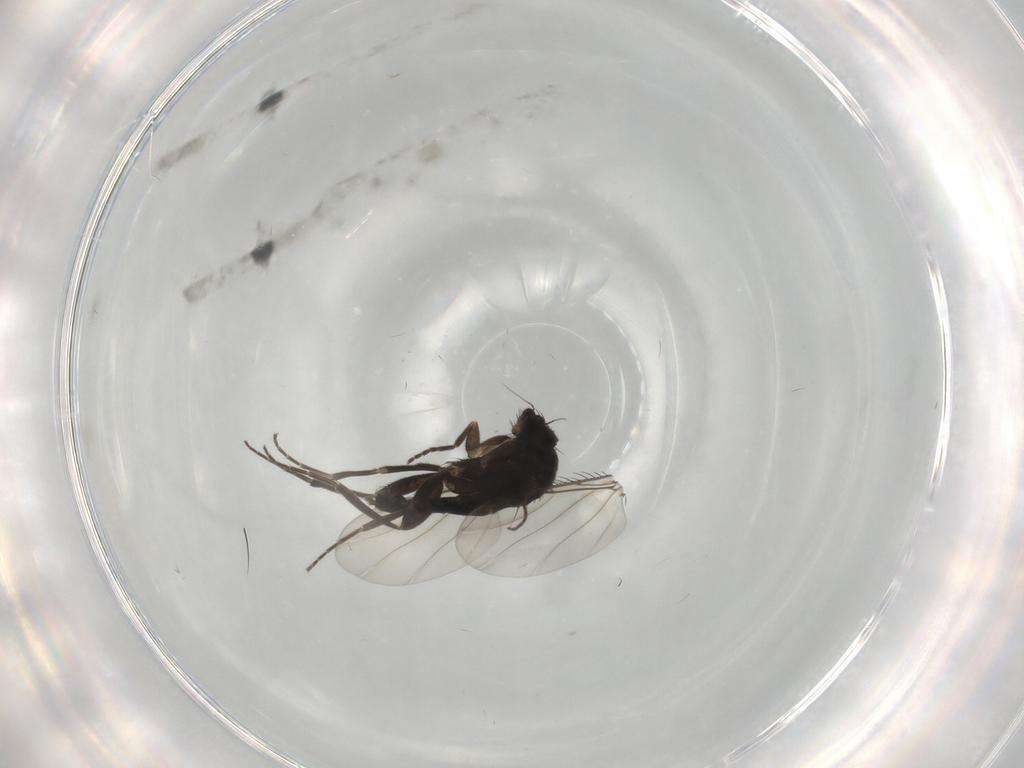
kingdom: Animalia
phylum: Arthropoda
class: Insecta
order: Diptera
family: Phoridae
